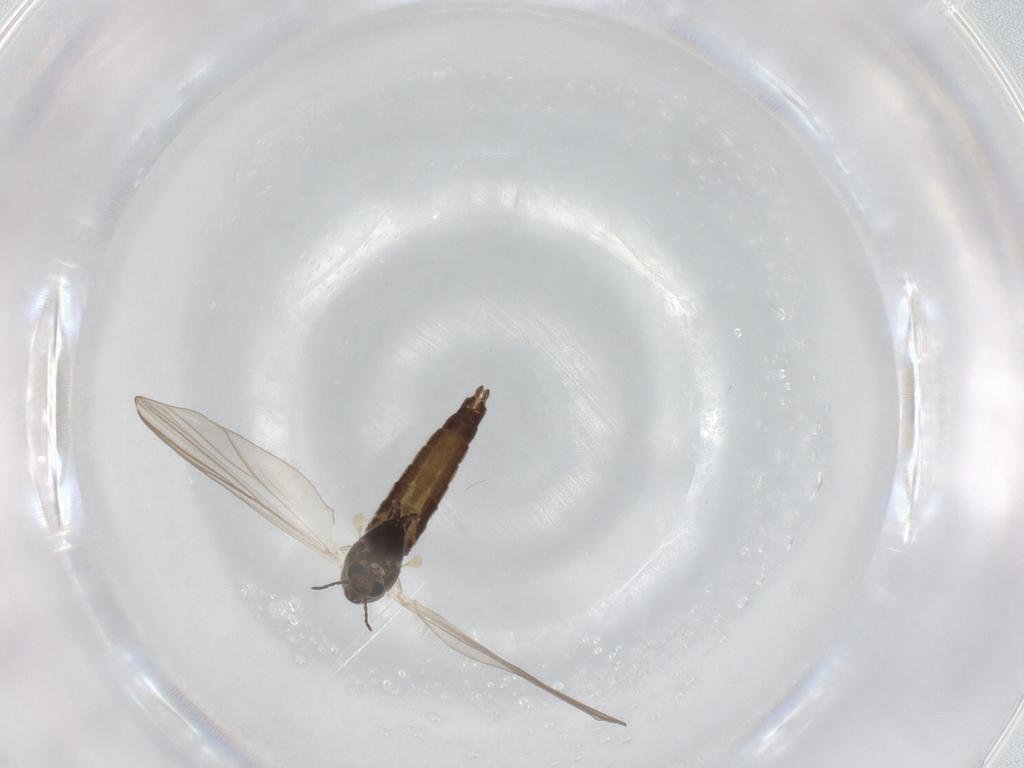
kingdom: Animalia
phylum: Arthropoda
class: Insecta
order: Diptera
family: Chironomidae
